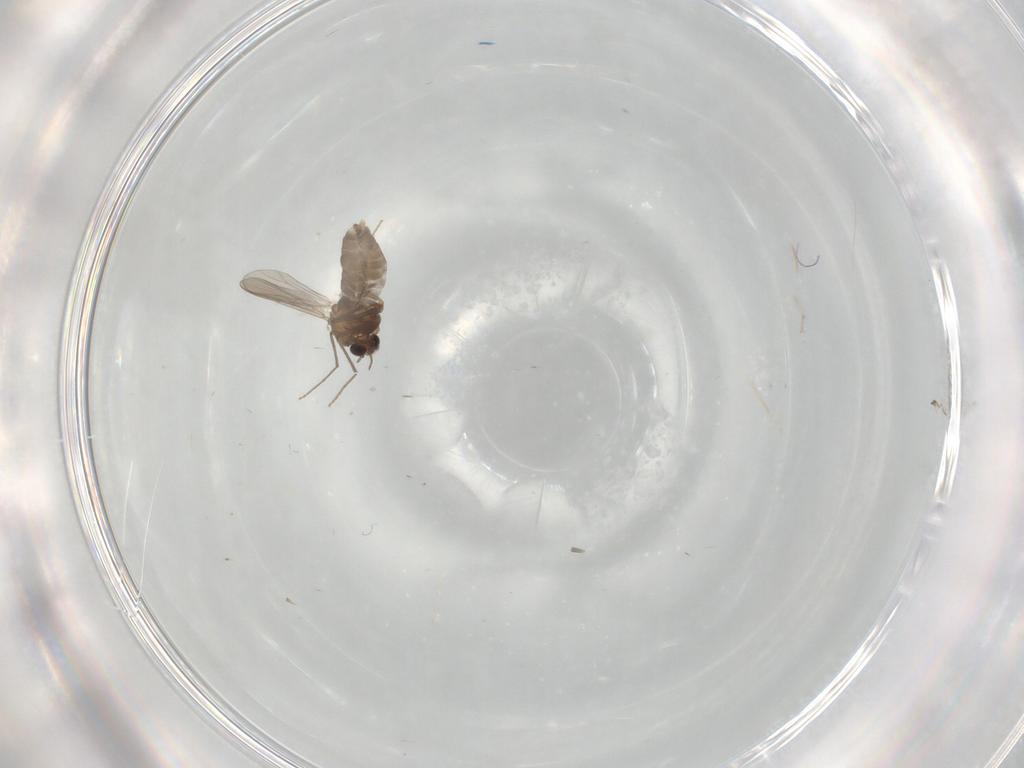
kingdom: Animalia
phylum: Arthropoda
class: Insecta
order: Diptera
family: Chironomidae
